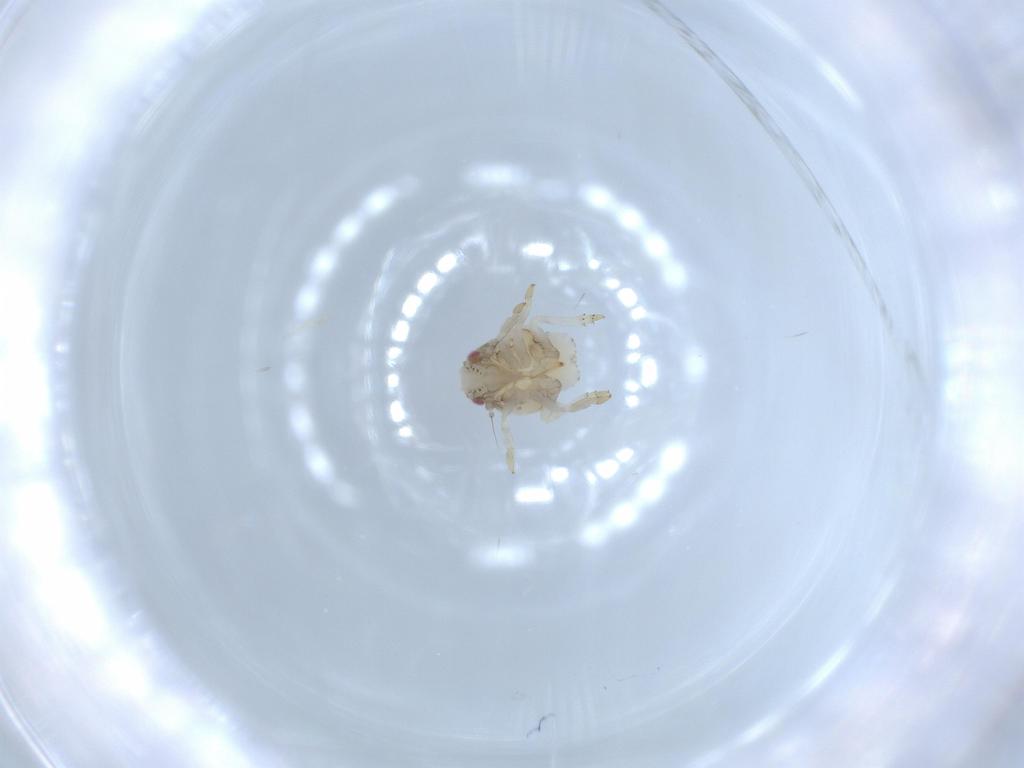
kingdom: Animalia
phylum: Arthropoda
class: Insecta
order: Hemiptera
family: Acanaloniidae
